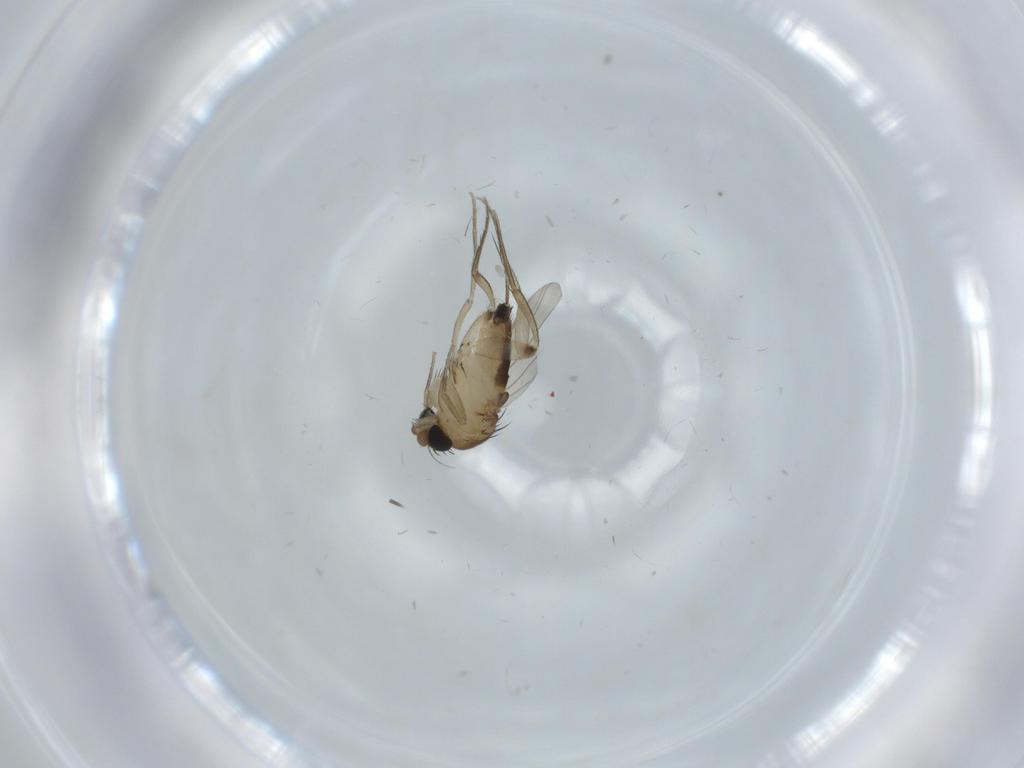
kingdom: Animalia
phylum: Arthropoda
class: Insecta
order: Diptera
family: Phoridae
